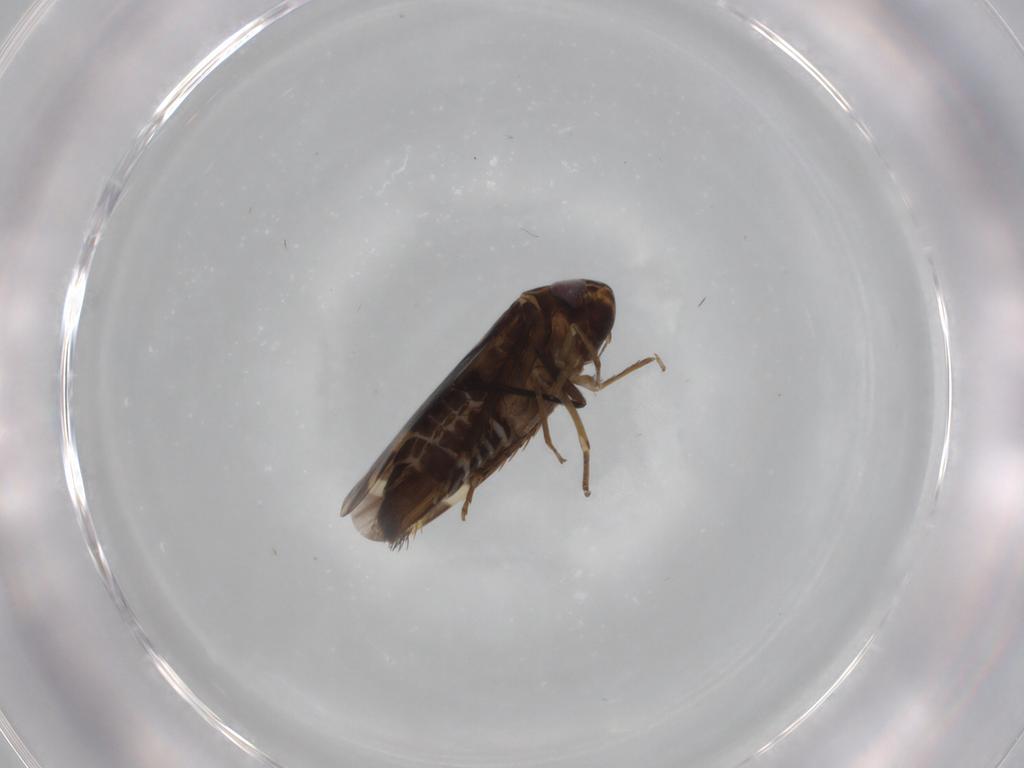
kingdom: Animalia
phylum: Arthropoda
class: Insecta
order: Hemiptera
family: Cicadellidae
